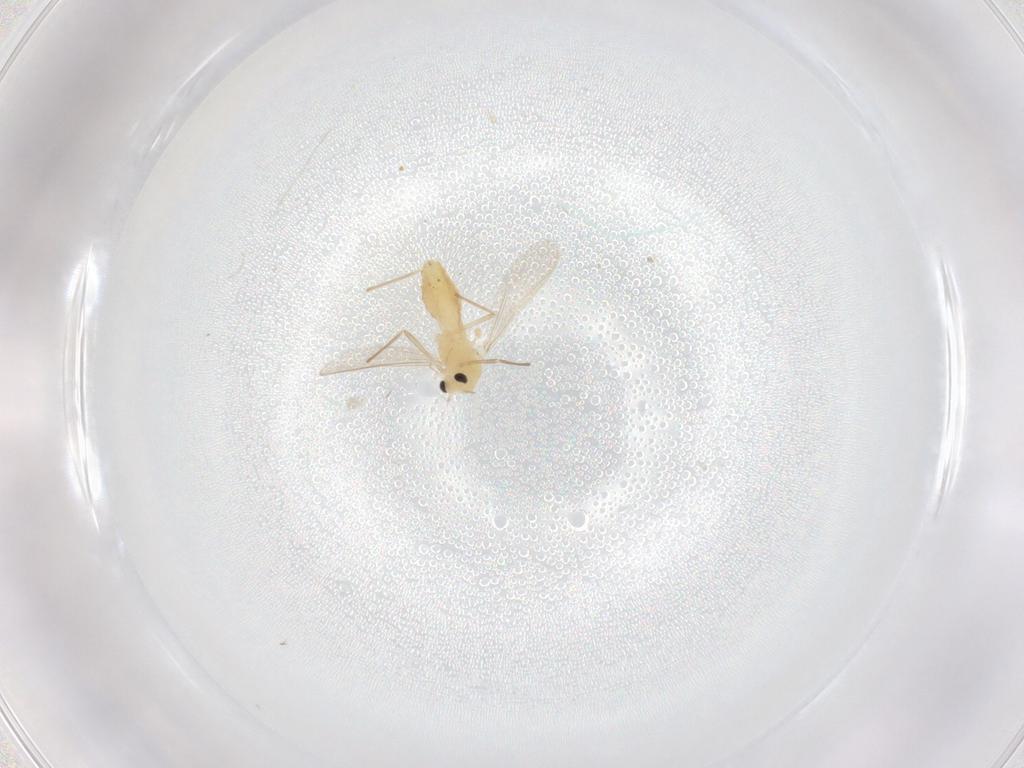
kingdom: Animalia
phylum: Arthropoda
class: Insecta
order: Diptera
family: Chironomidae
